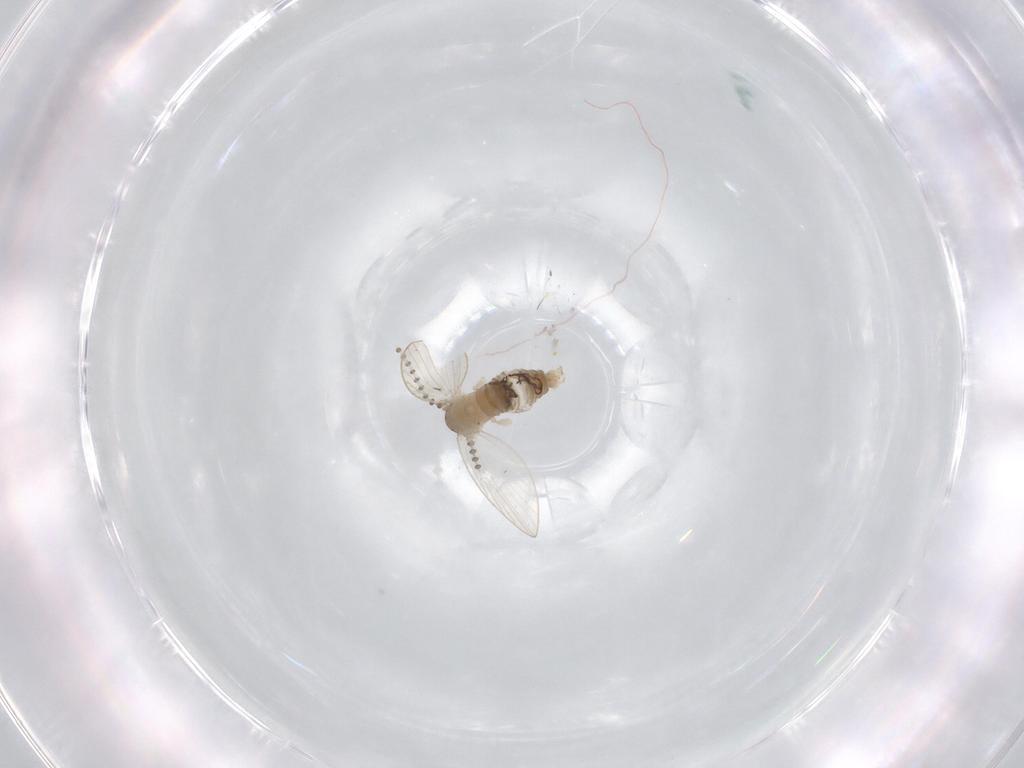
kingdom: Animalia
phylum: Arthropoda
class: Insecta
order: Diptera
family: Psychodidae
